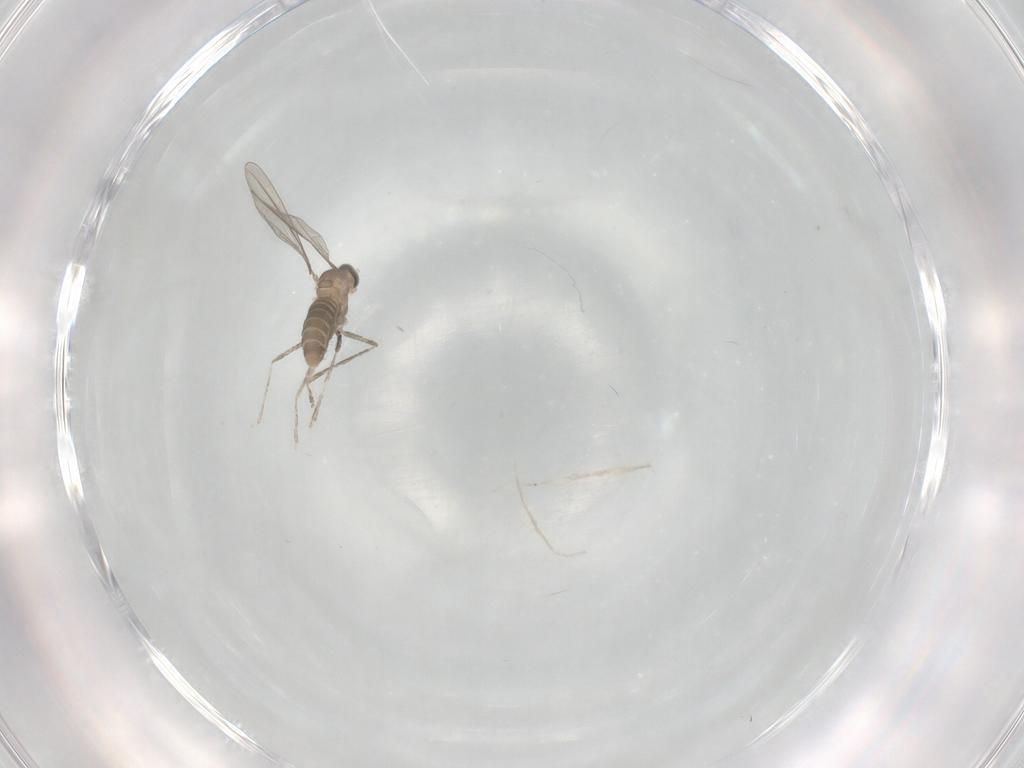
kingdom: Animalia
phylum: Arthropoda
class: Insecta
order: Diptera
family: Cecidomyiidae
